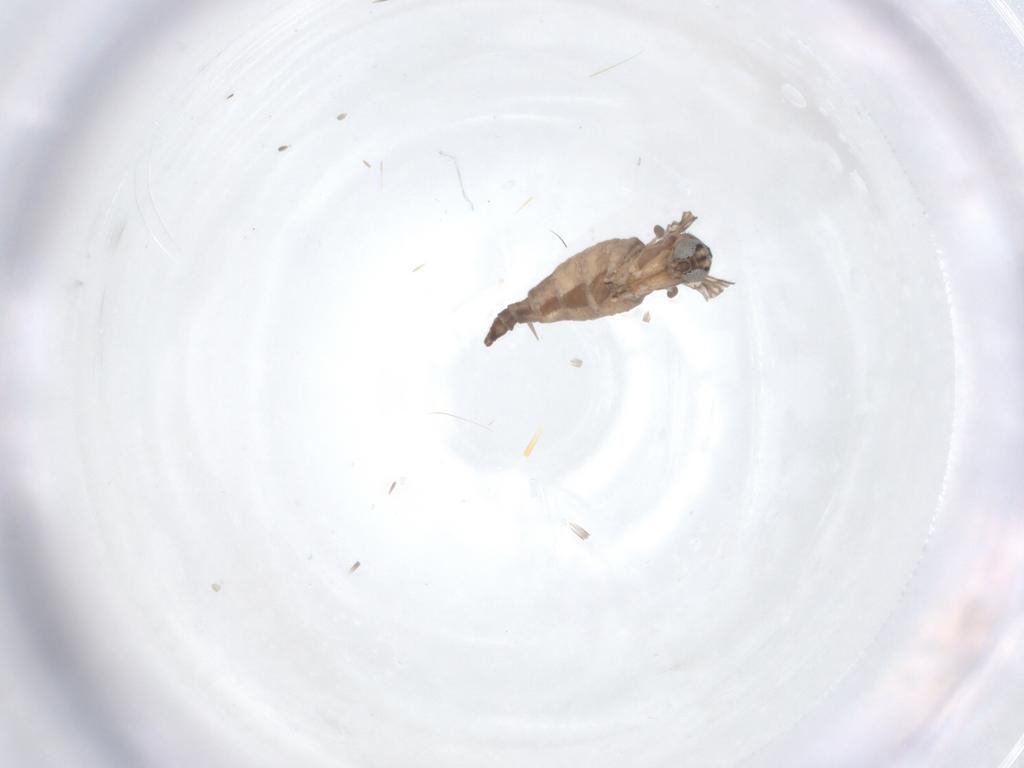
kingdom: Animalia
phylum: Arthropoda
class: Insecta
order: Diptera
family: Sciaridae
